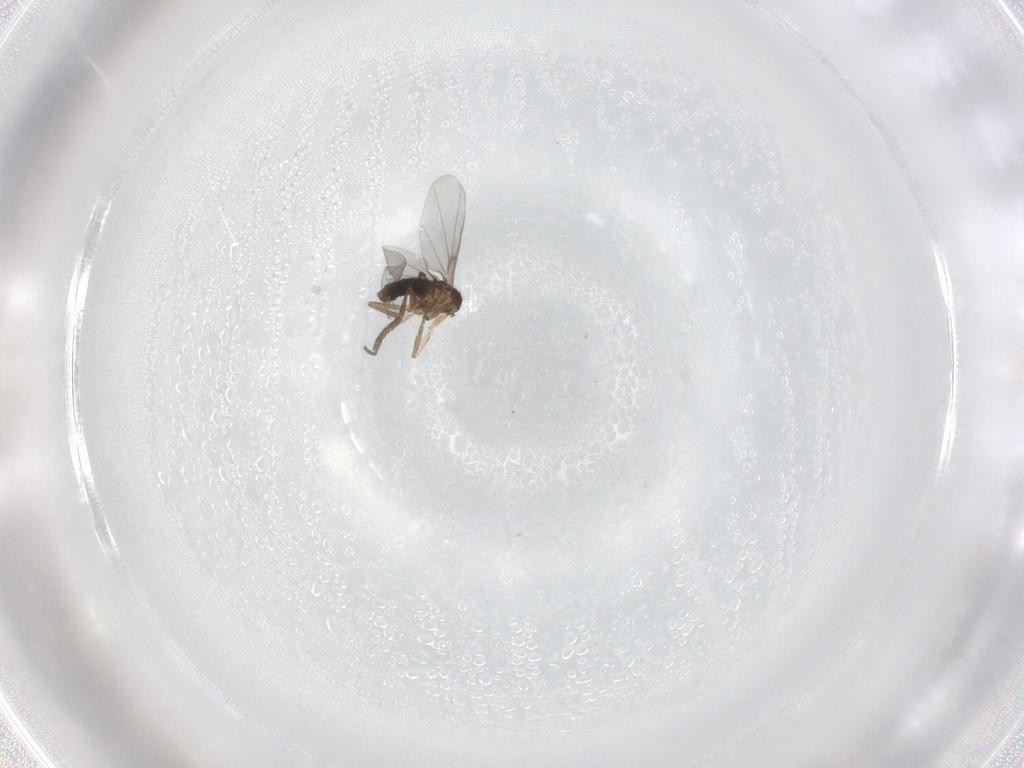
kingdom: Animalia
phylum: Arthropoda
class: Insecta
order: Diptera
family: Phoridae
